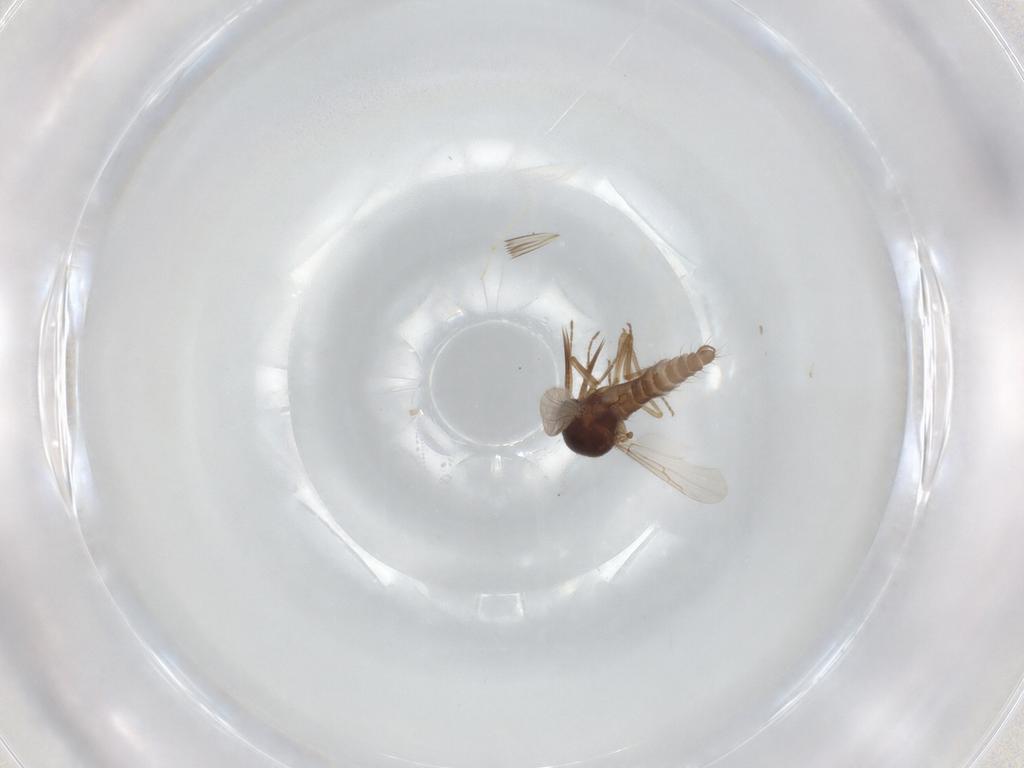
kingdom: Animalia
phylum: Arthropoda
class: Insecta
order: Diptera
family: Ceratopogonidae
